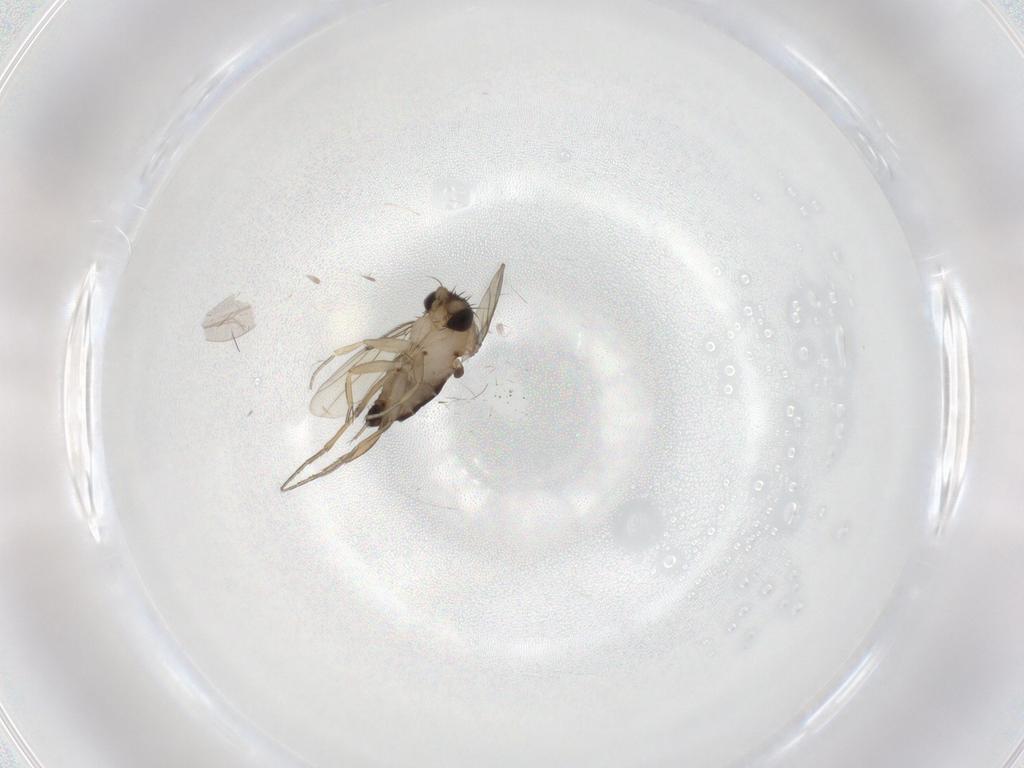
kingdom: Animalia
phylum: Arthropoda
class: Insecta
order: Diptera
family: Phoridae
